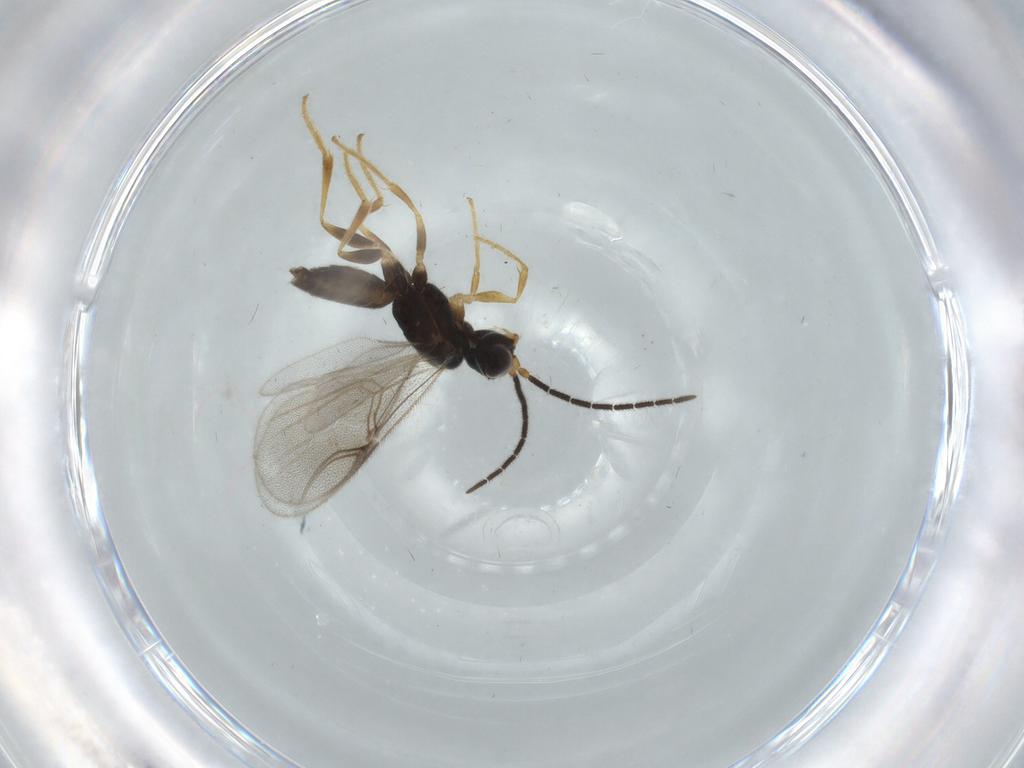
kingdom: Animalia
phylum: Arthropoda
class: Insecta
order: Hymenoptera
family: Dryinidae
